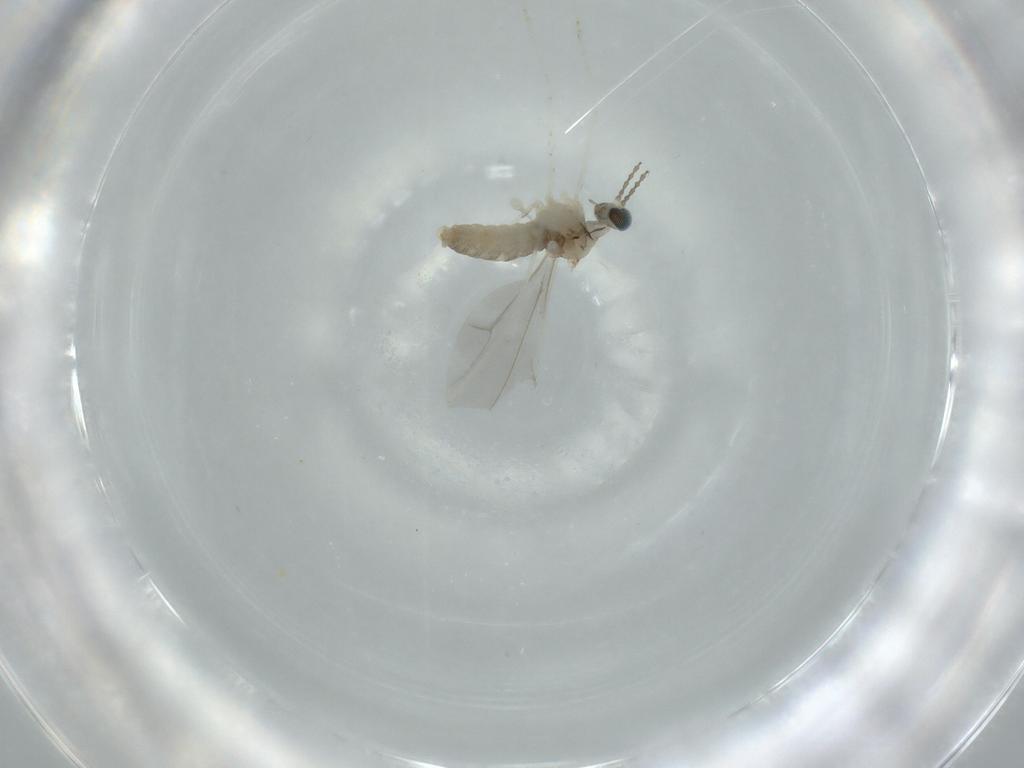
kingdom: Animalia
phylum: Arthropoda
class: Insecta
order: Diptera
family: Cecidomyiidae
